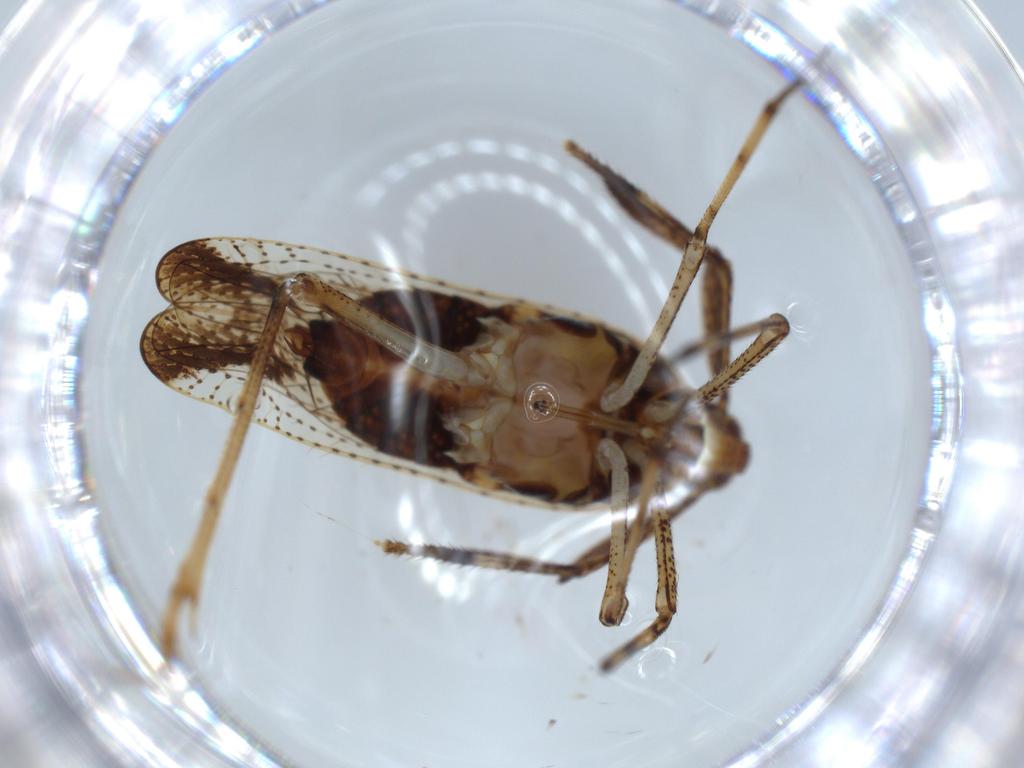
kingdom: Animalia
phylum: Arthropoda
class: Insecta
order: Hemiptera
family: Delphacidae
